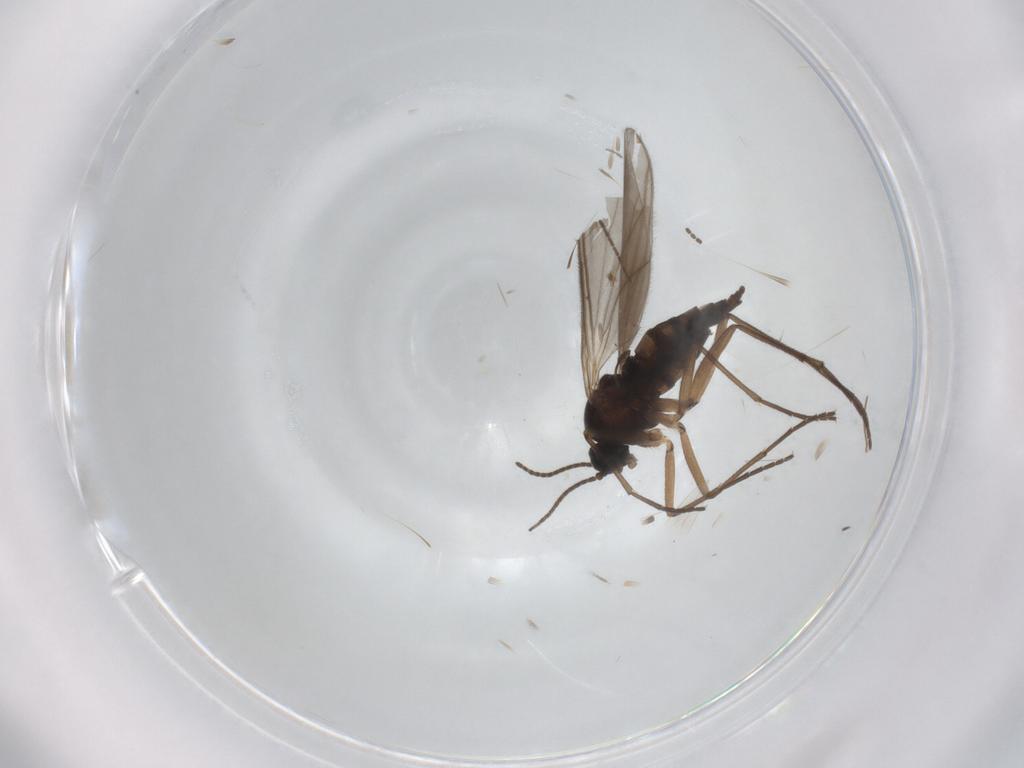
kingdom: Animalia
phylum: Arthropoda
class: Insecta
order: Diptera
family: Sciaridae
